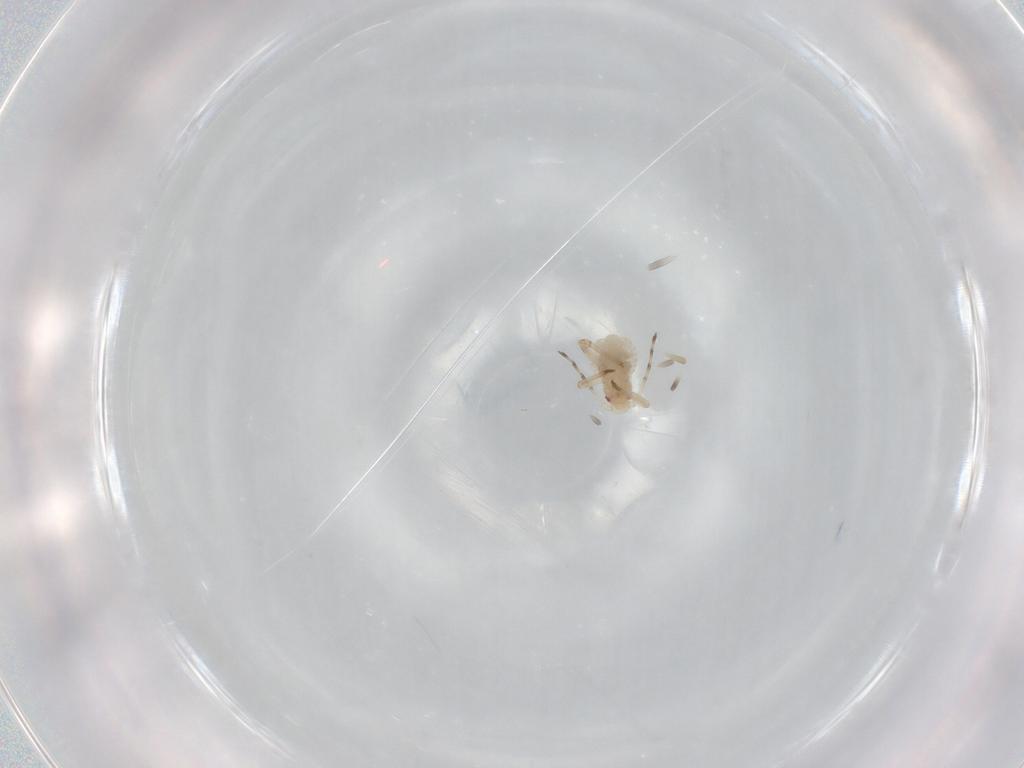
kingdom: Animalia
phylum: Arthropoda
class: Insecta
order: Hemiptera
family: Aphididae
